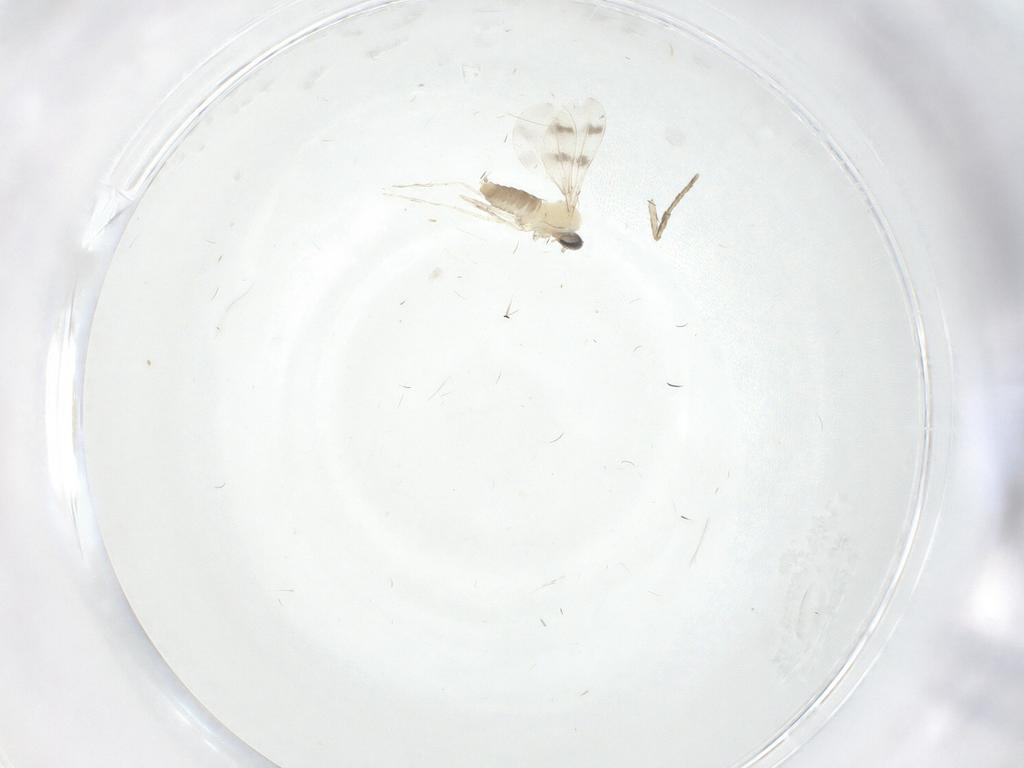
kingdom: Animalia
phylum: Arthropoda
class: Insecta
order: Diptera
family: Psychodidae
